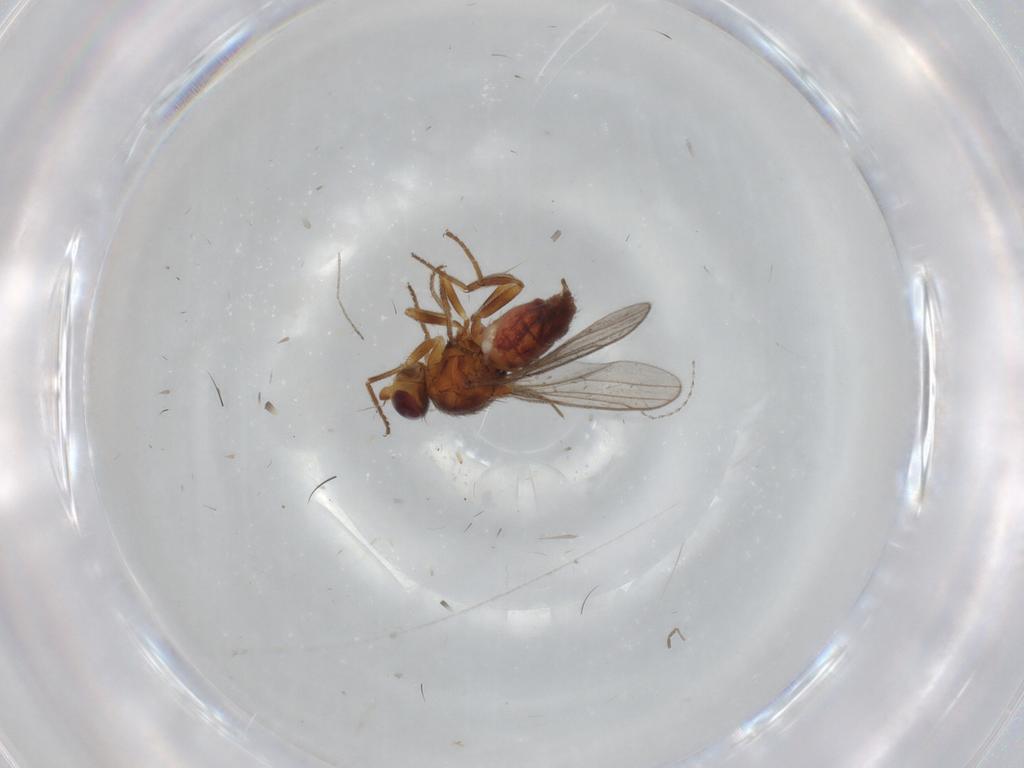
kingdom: Animalia
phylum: Arthropoda
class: Insecta
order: Diptera
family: Chloropidae
